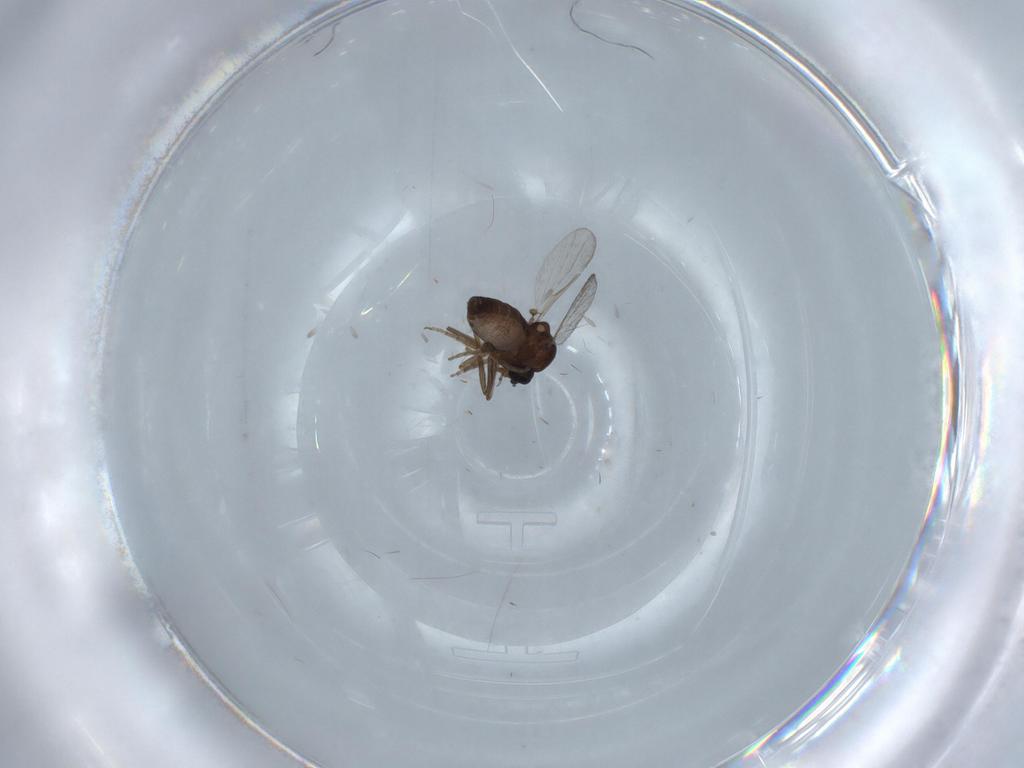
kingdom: Animalia
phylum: Arthropoda
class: Insecta
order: Diptera
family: Ceratopogonidae
